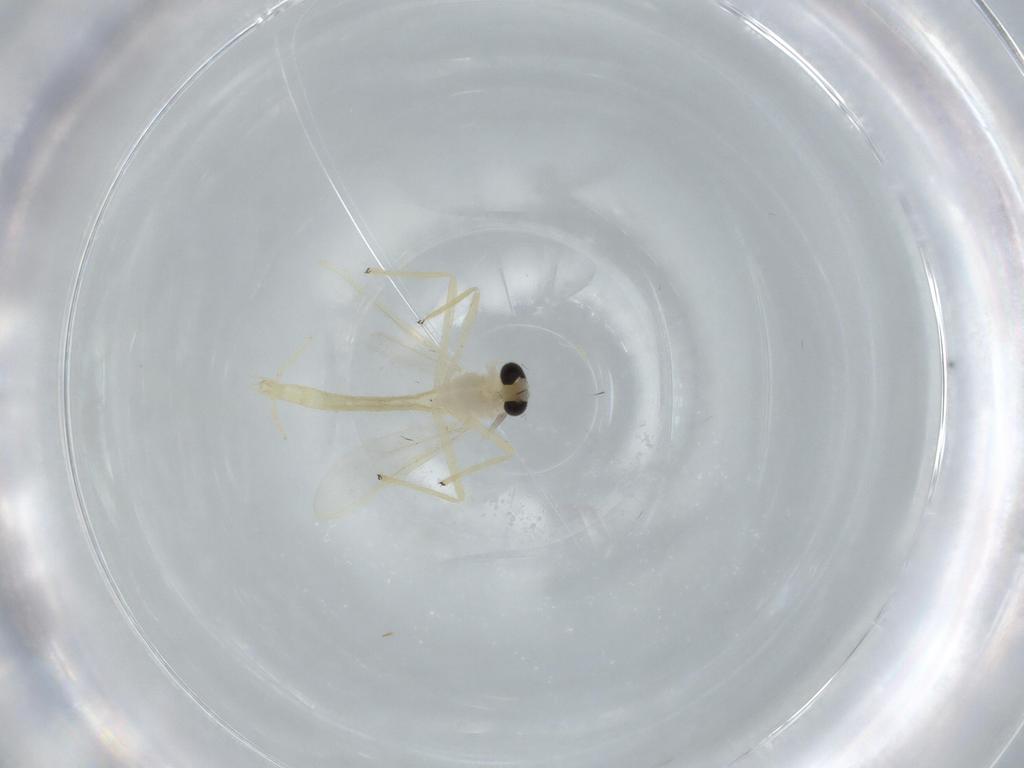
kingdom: Animalia
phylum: Arthropoda
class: Insecta
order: Diptera
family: Chironomidae
